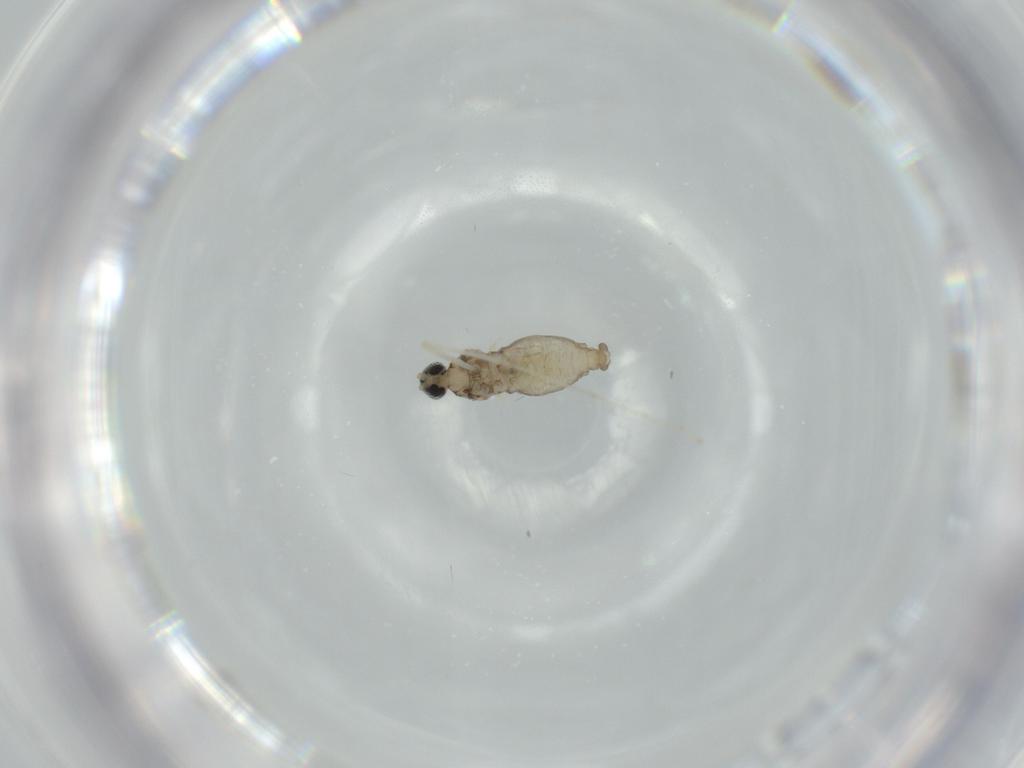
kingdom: Animalia
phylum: Arthropoda
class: Insecta
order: Diptera
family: Cecidomyiidae
